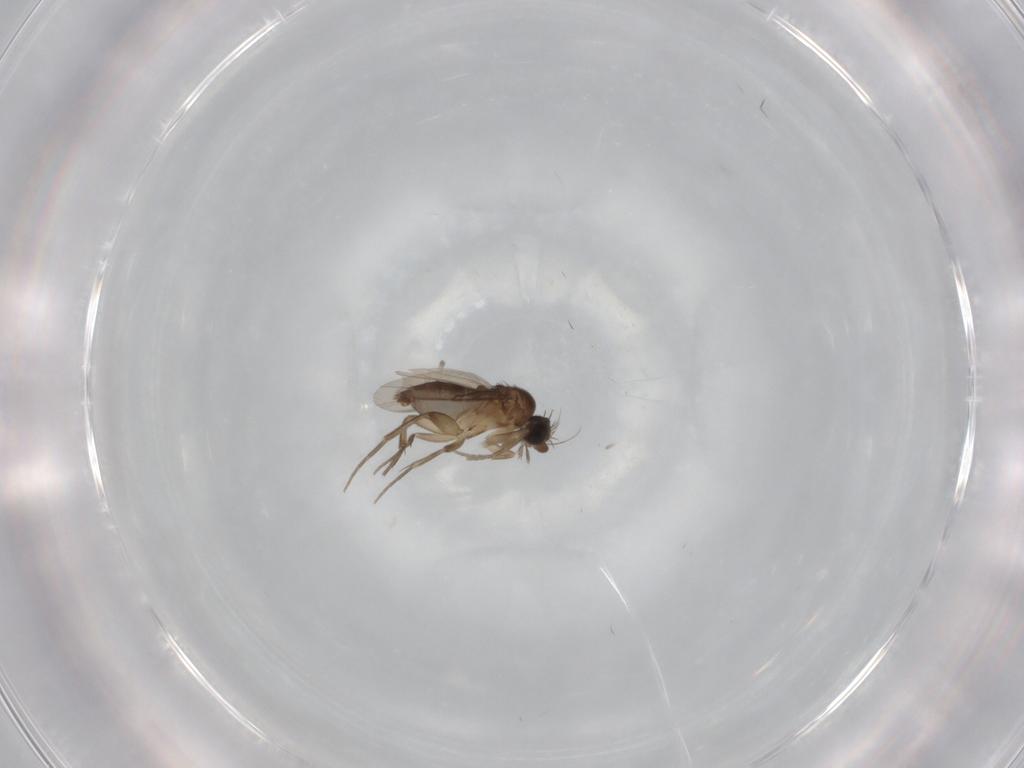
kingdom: Animalia
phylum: Arthropoda
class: Insecta
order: Diptera
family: Phoridae
